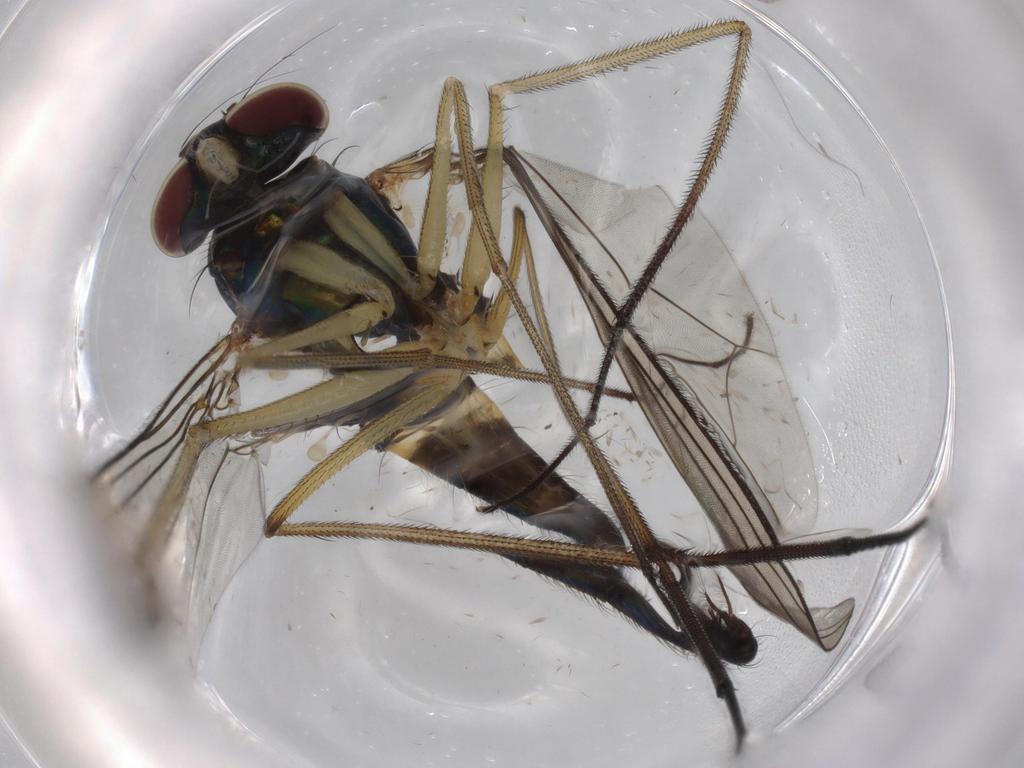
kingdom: Animalia
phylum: Arthropoda
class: Insecta
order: Diptera
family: Dolichopodidae
